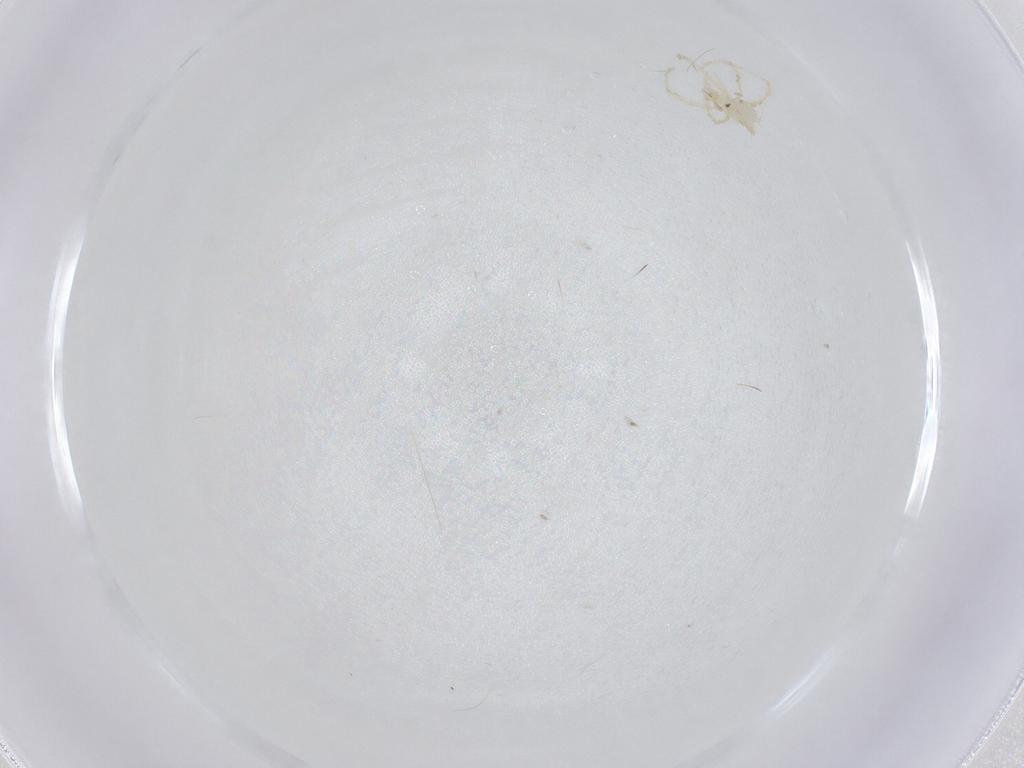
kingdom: Animalia
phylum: Arthropoda
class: Arachnida
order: Trombidiformes
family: Erythraeidae
